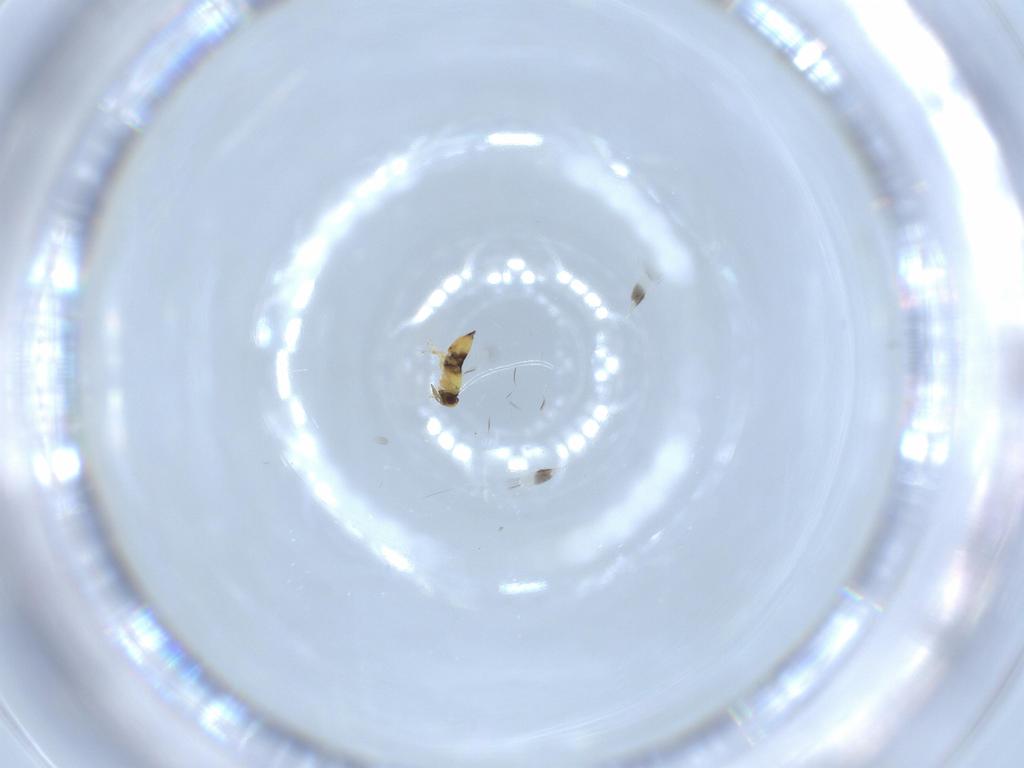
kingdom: Animalia
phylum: Arthropoda
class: Insecta
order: Hymenoptera
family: Signiphoridae
